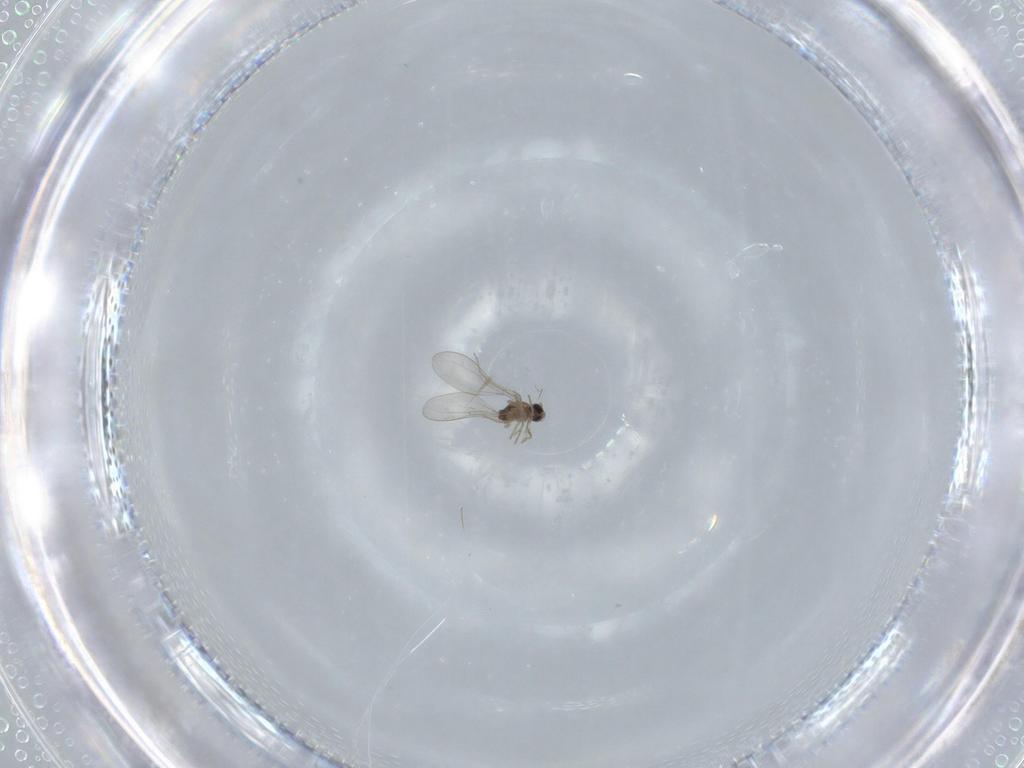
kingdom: Animalia
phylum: Arthropoda
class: Insecta
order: Diptera
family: Cecidomyiidae
